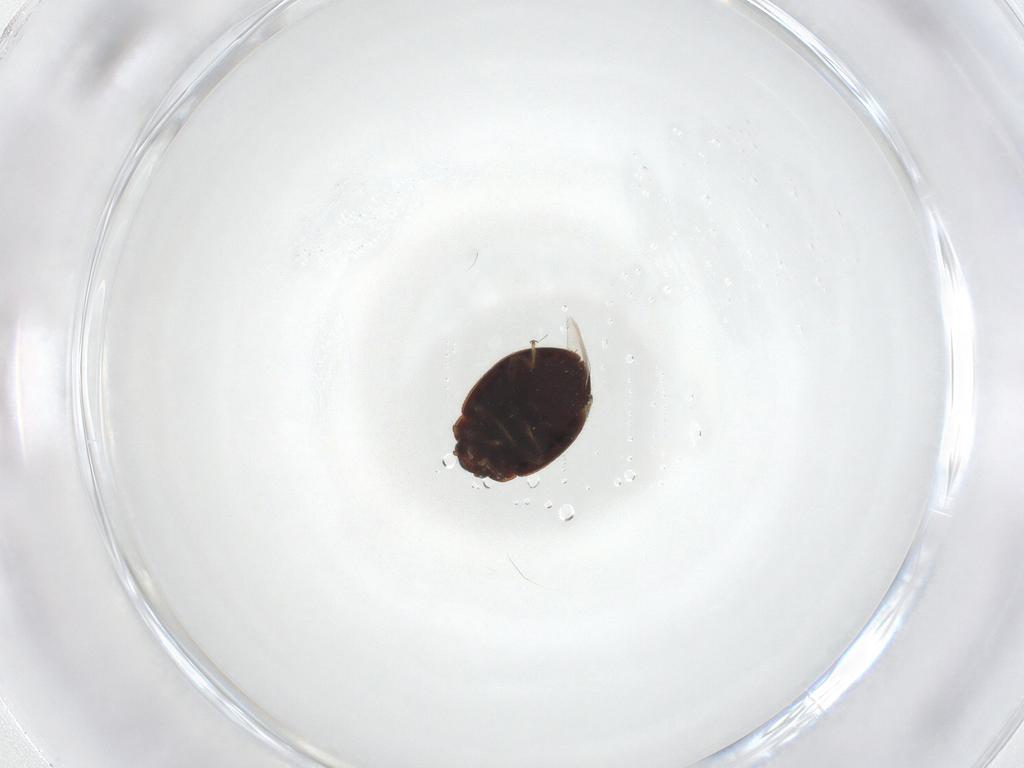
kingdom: Animalia
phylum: Arthropoda
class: Insecta
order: Coleoptera
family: Coccinellidae
